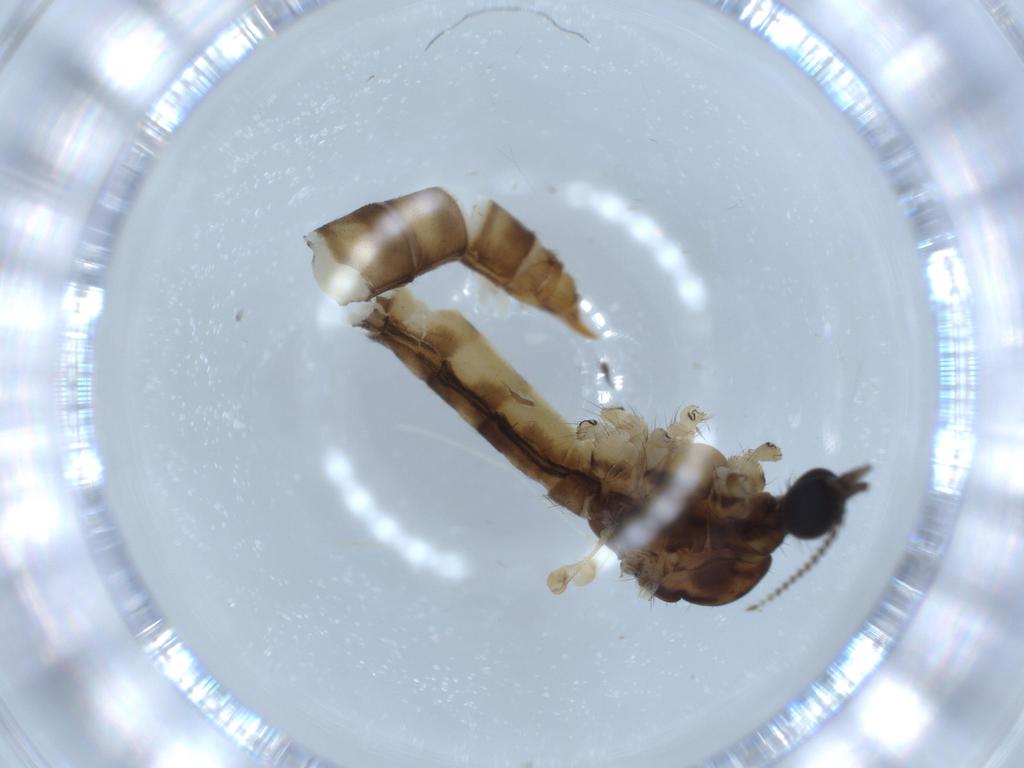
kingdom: Animalia
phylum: Arthropoda
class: Insecta
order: Diptera
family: Limoniidae
